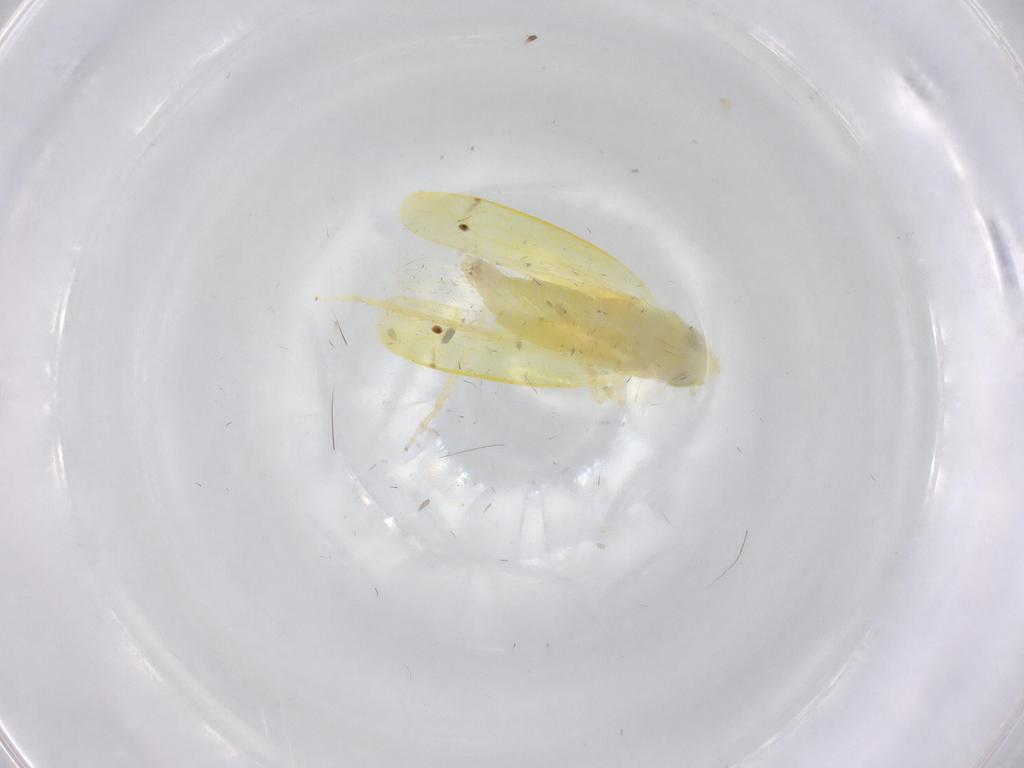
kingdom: Animalia
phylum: Arthropoda
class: Insecta
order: Hemiptera
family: Cicadellidae
